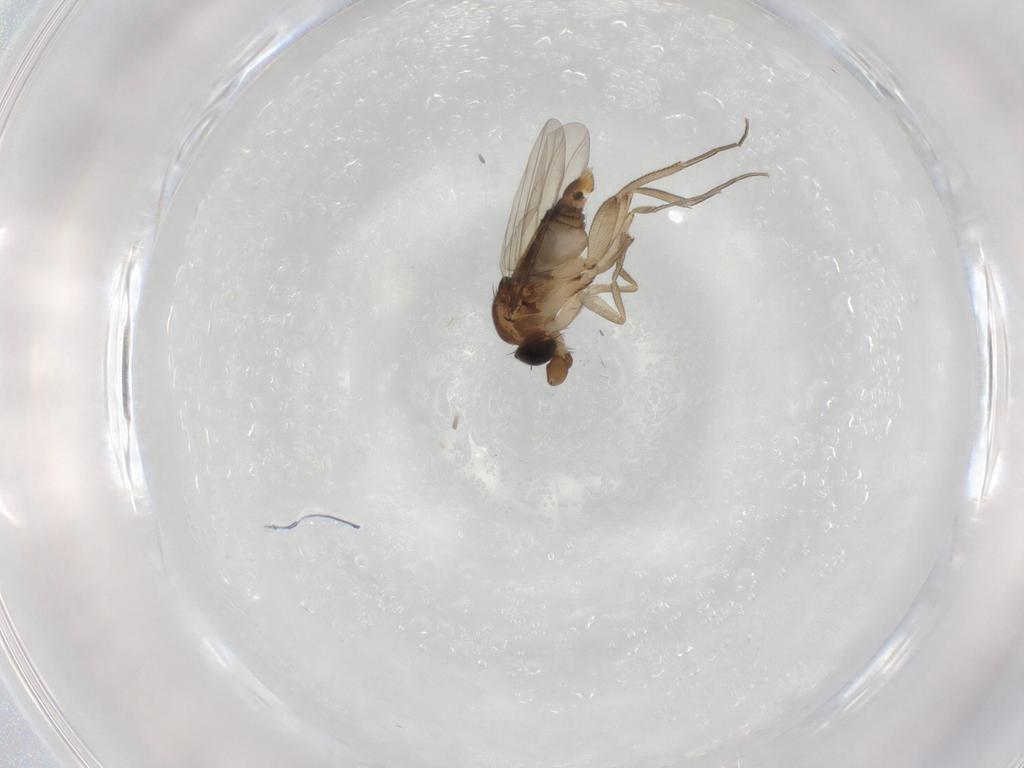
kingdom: Animalia
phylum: Arthropoda
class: Insecta
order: Diptera
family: Phoridae
